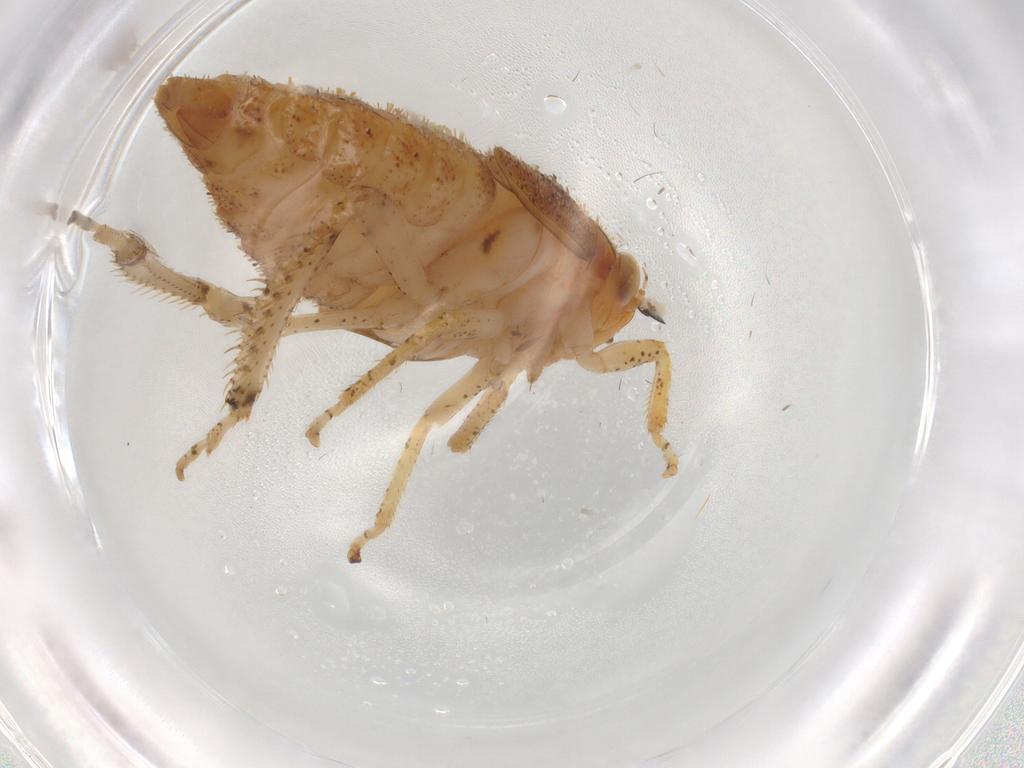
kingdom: Animalia
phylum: Arthropoda
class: Insecta
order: Hemiptera
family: Cicadellidae
